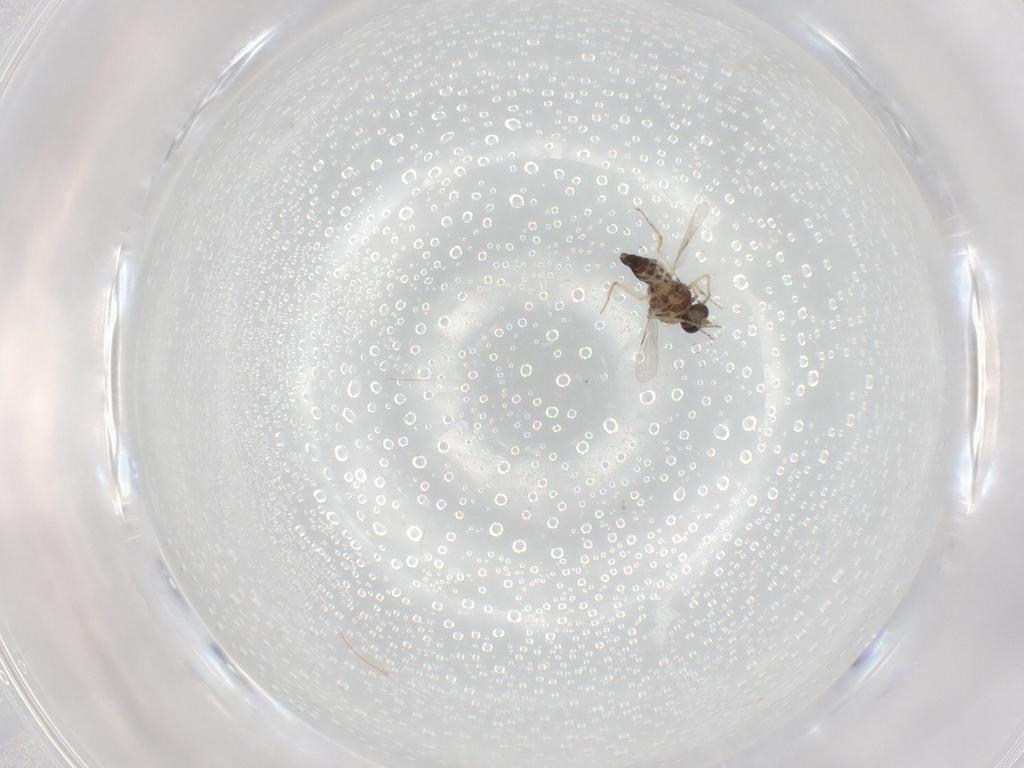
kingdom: Animalia
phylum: Arthropoda
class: Insecta
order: Diptera
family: Ceratopogonidae
